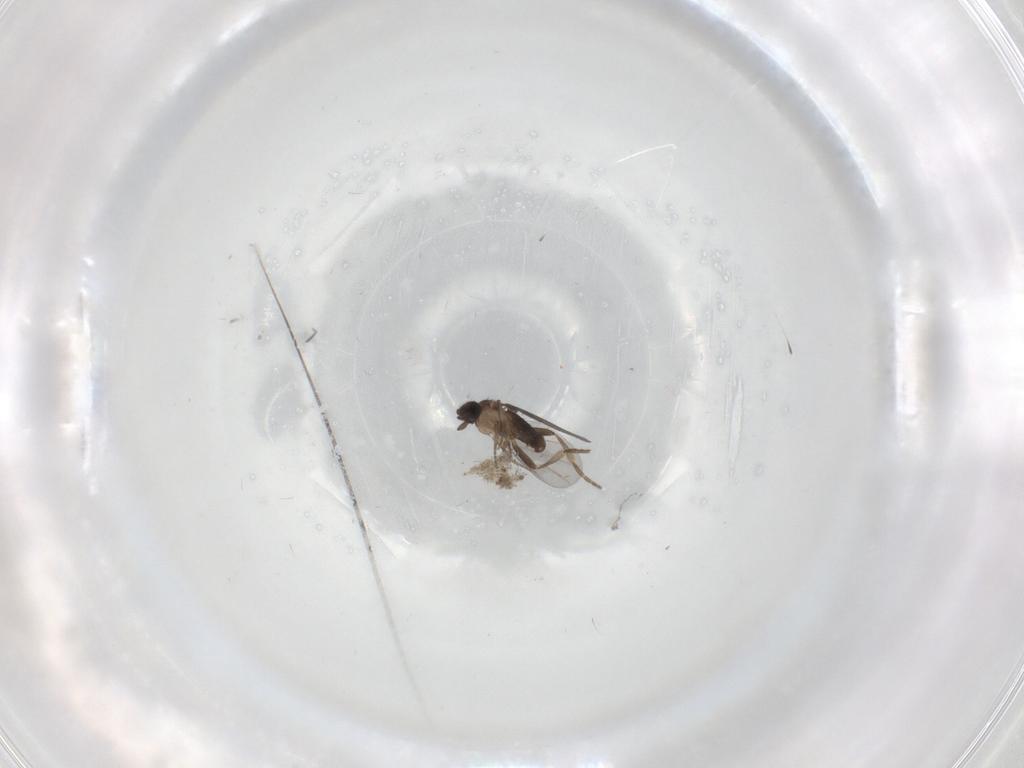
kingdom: Animalia
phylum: Arthropoda
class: Insecta
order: Diptera
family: Drosophilidae
